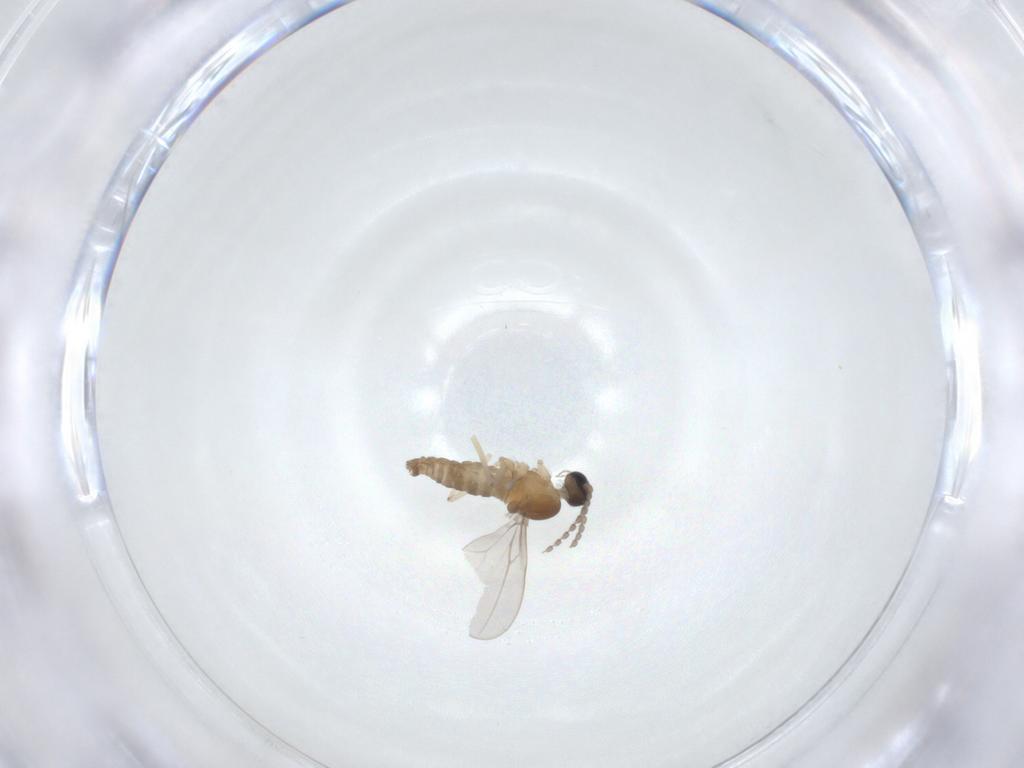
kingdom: Animalia
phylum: Arthropoda
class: Insecta
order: Diptera
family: Cecidomyiidae
